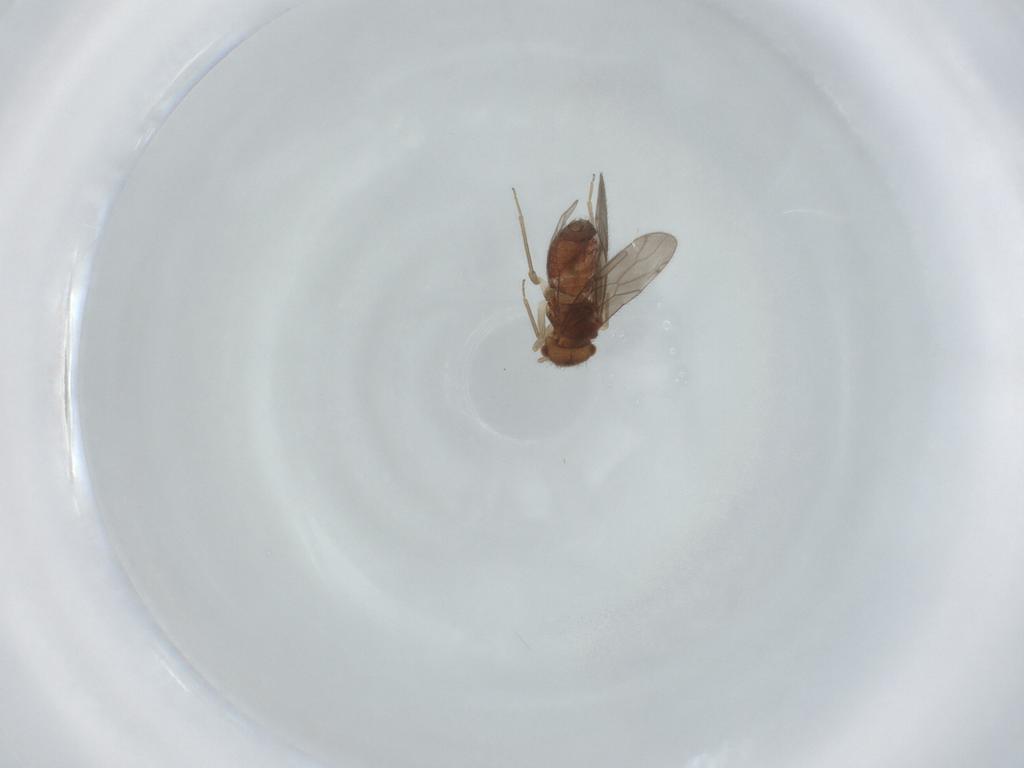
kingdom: Animalia
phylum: Arthropoda
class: Insecta
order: Psocodea
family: Ectopsocidae
